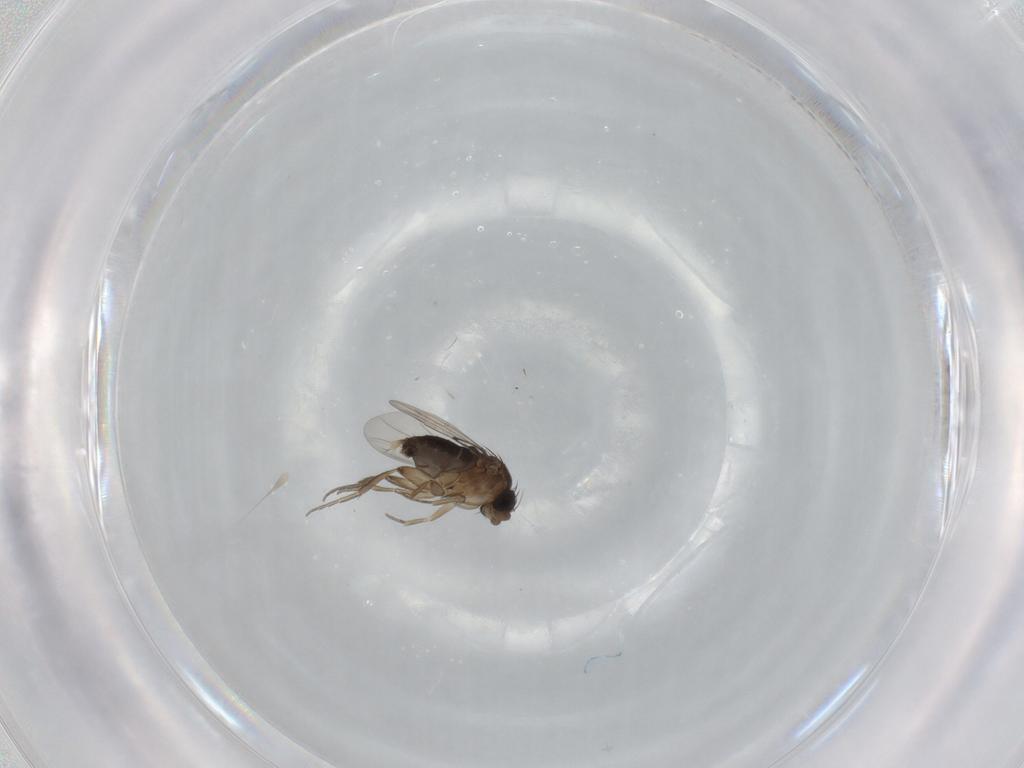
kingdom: Animalia
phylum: Arthropoda
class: Insecta
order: Diptera
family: Phoridae
